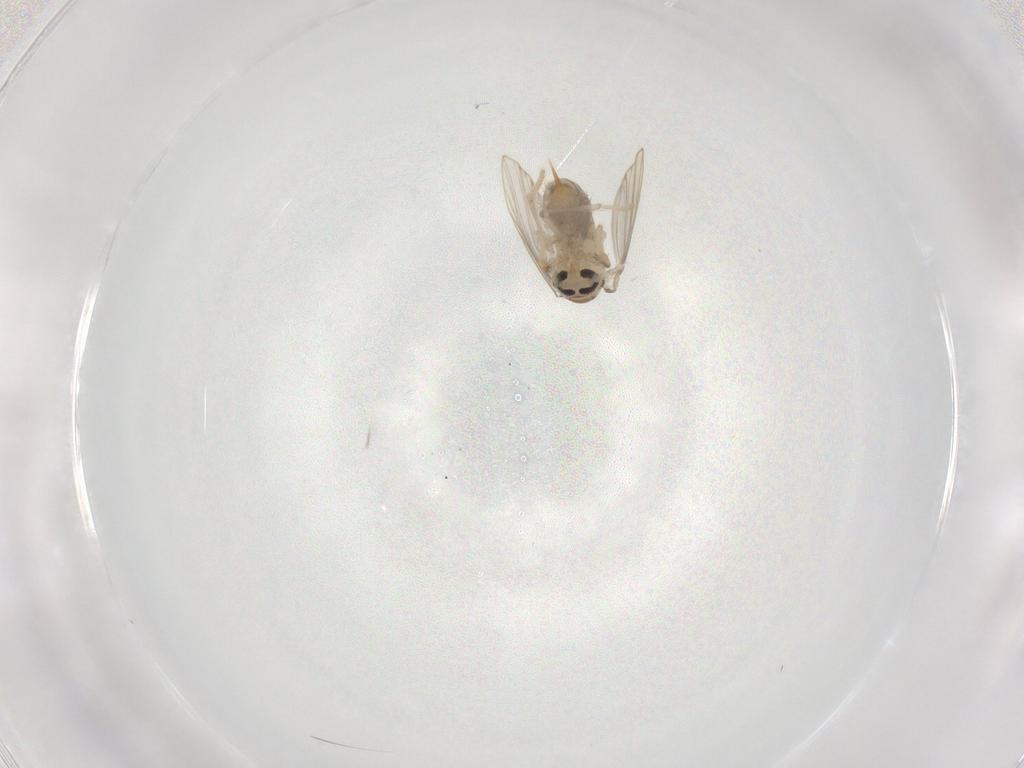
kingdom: Animalia
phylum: Arthropoda
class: Insecta
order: Diptera
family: Psychodidae
